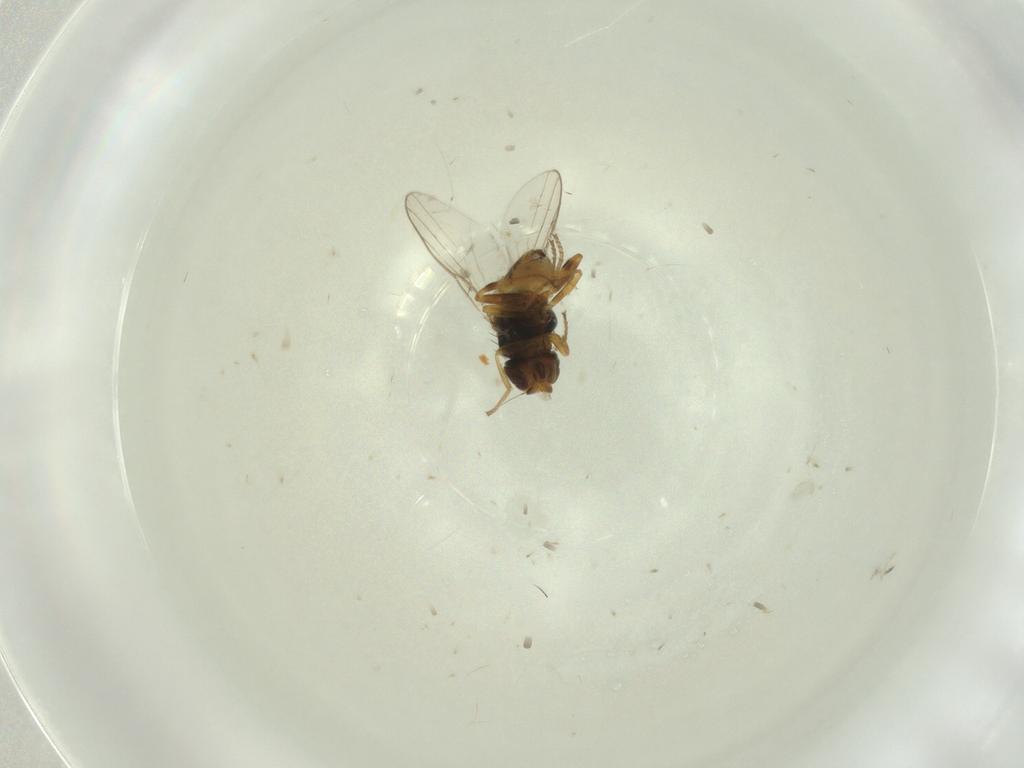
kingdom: Animalia
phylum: Arthropoda
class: Insecta
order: Diptera
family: Chloropidae
